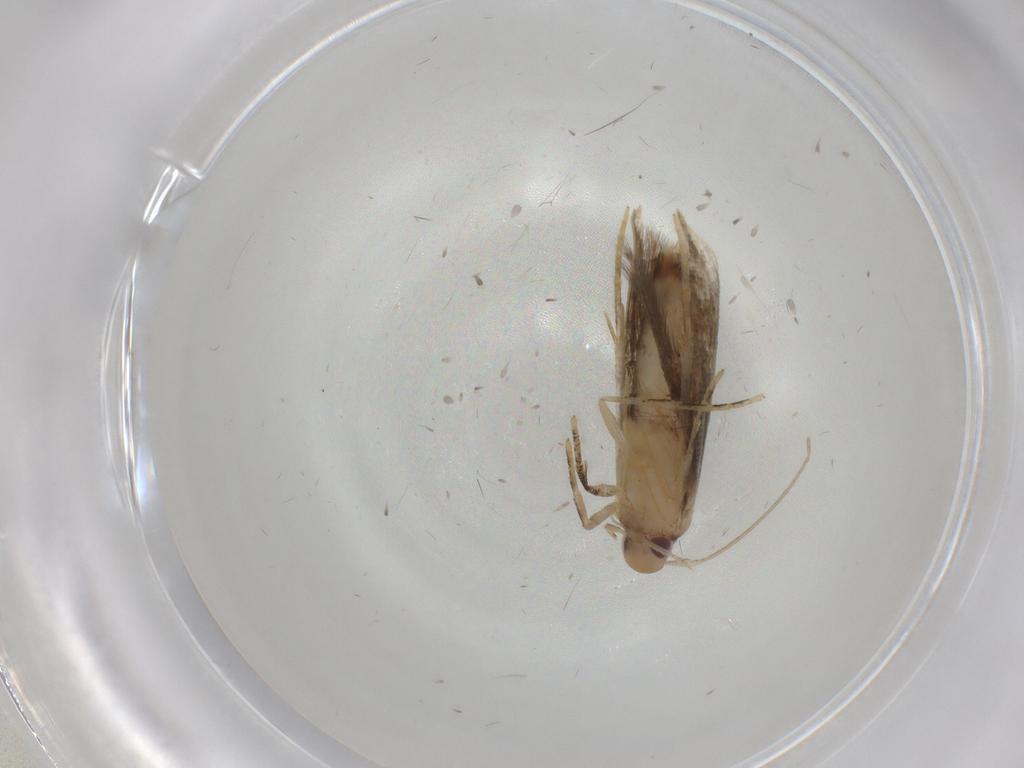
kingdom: Animalia
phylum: Arthropoda
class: Insecta
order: Lepidoptera
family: Momphidae
